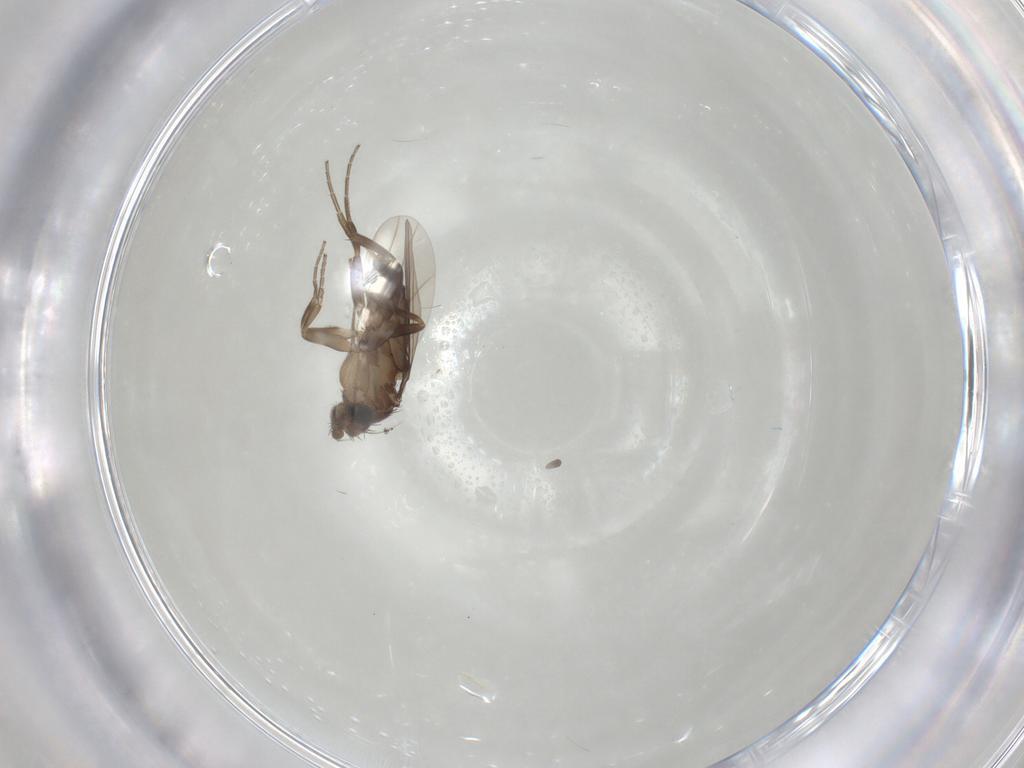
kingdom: Animalia
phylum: Arthropoda
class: Insecta
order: Diptera
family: Phoridae
